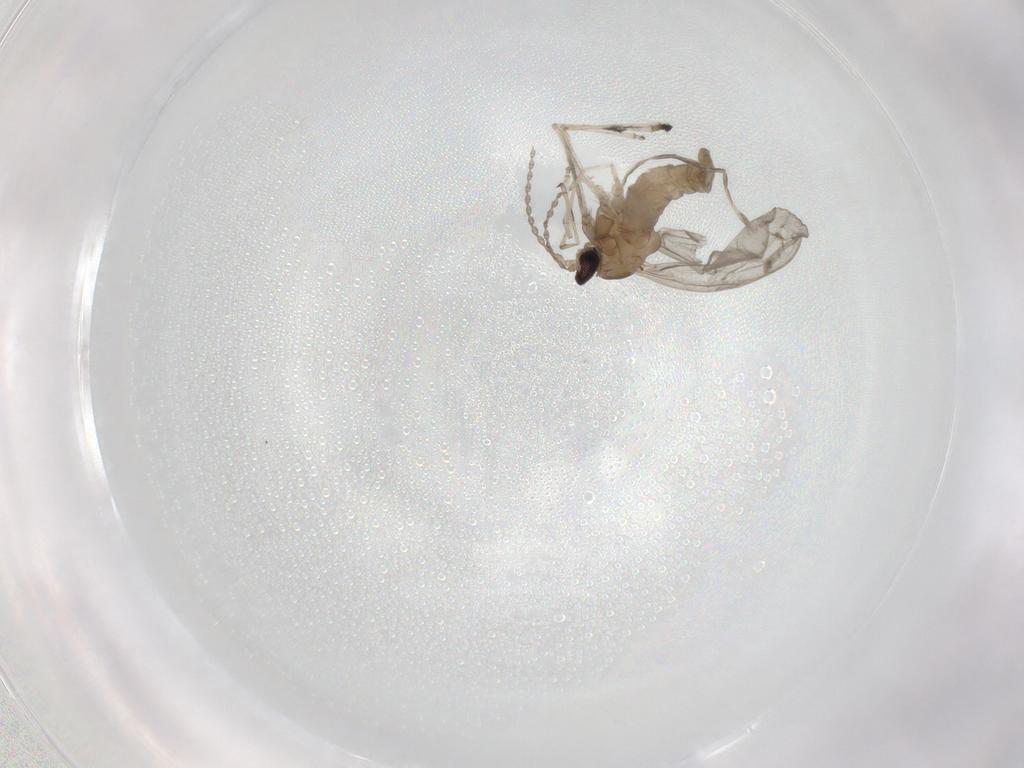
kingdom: Animalia
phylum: Arthropoda
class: Insecta
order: Diptera
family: Cecidomyiidae
